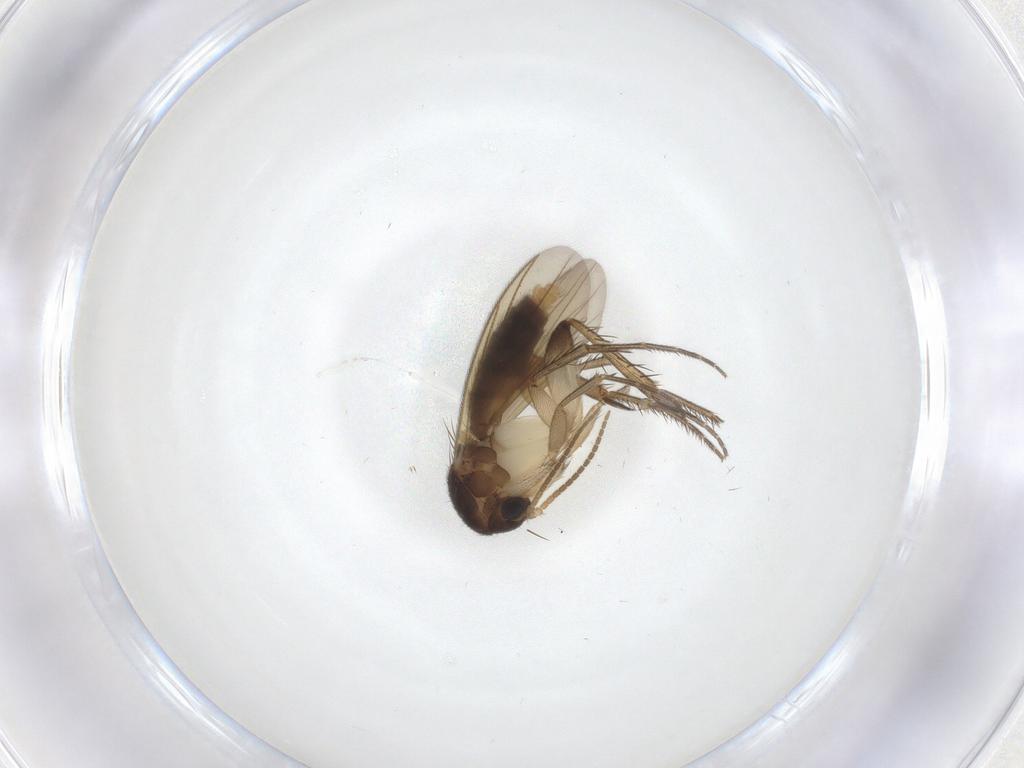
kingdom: Animalia
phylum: Arthropoda
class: Insecta
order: Diptera
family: Mycetophilidae
